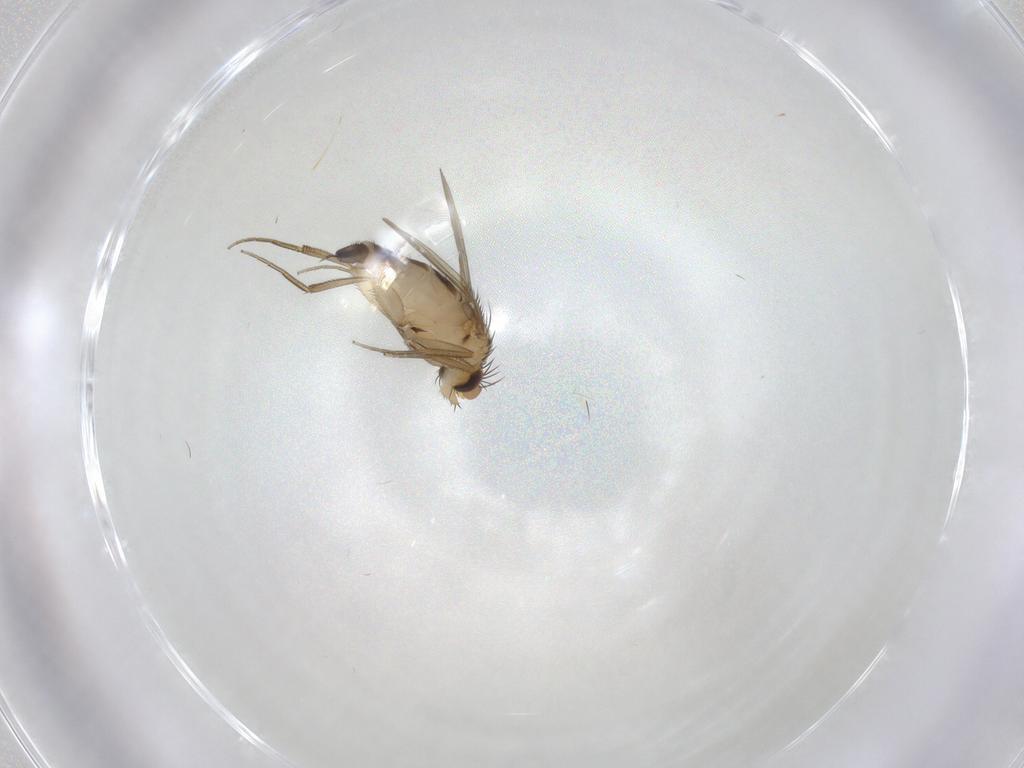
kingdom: Animalia
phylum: Arthropoda
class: Insecta
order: Diptera
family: Phoridae
